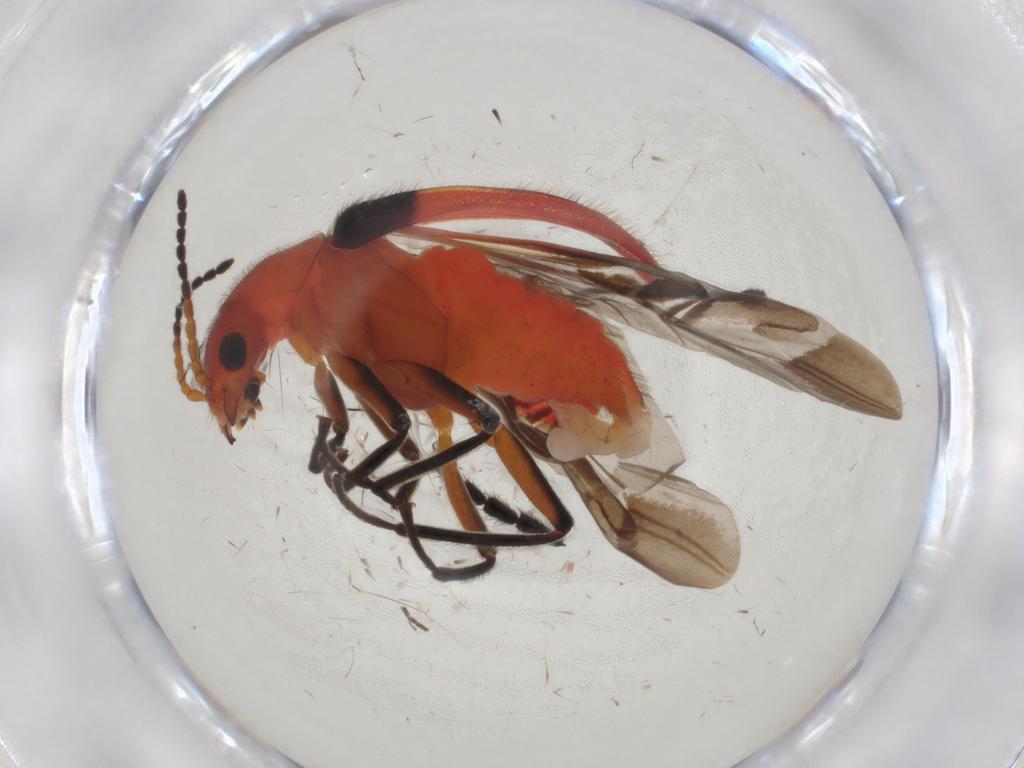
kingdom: Animalia
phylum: Arthropoda
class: Insecta
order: Coleoptera
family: Melyridae
